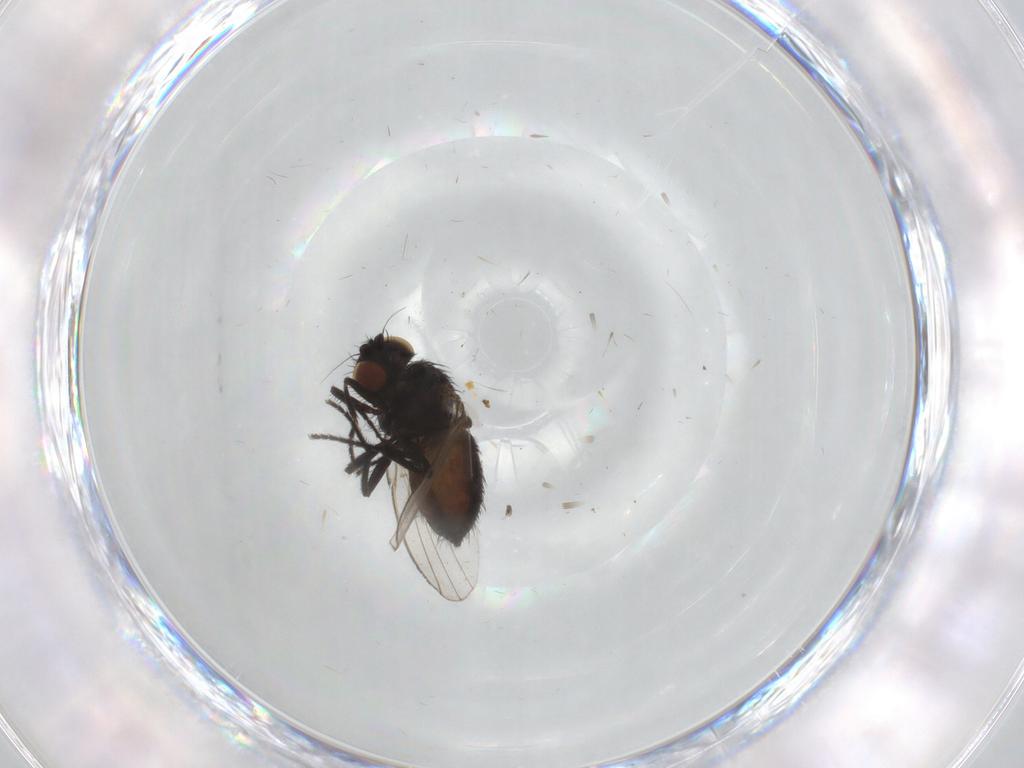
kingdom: Animalia
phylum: Arthropoda
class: Insecta
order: Diptera
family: Milichiidae
